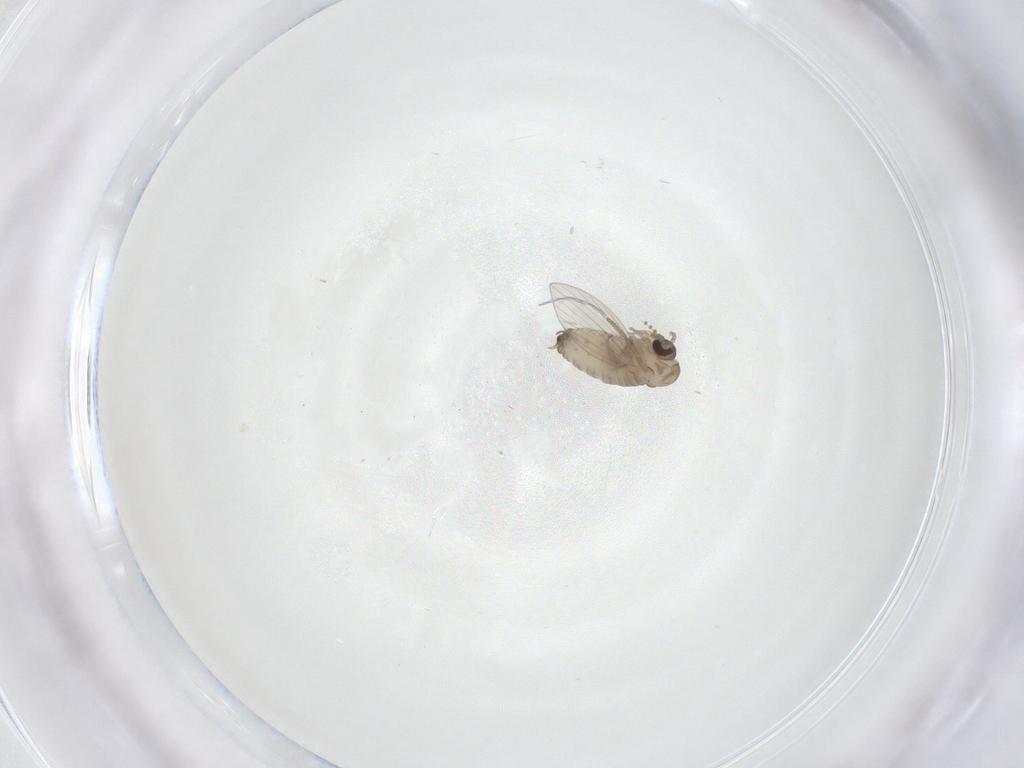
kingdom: Animalia
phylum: Arthropoda
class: Insecta
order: Diptera
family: Psychodidae
